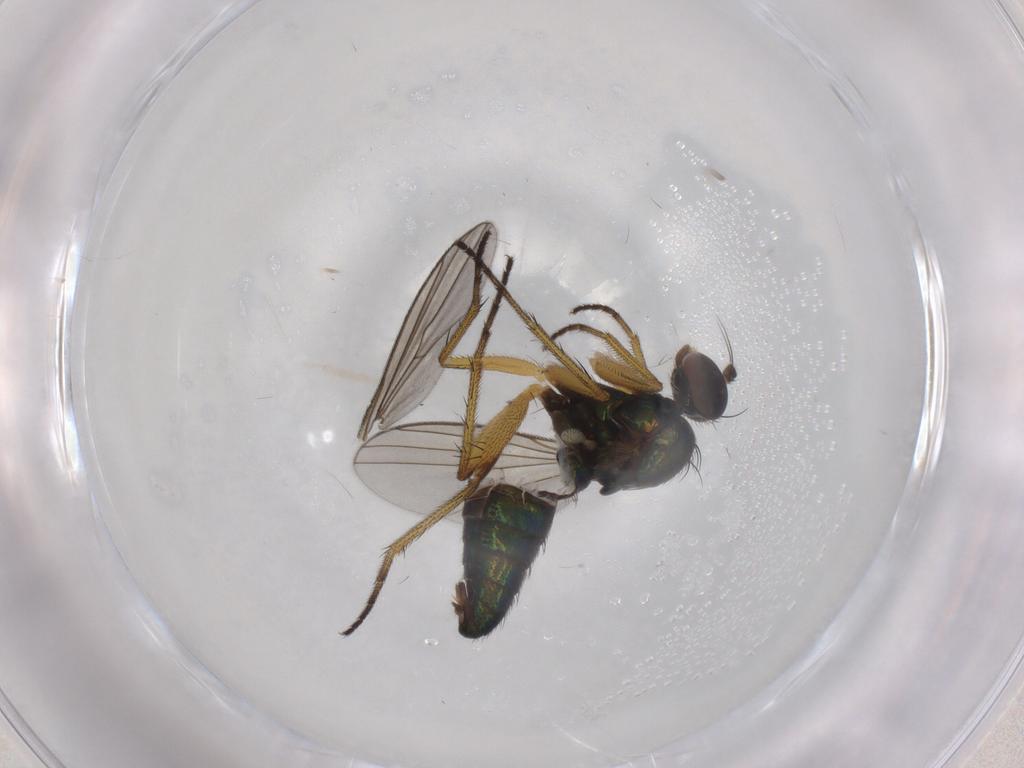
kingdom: Animalia
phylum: Arthropoda
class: Insecta
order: Diptera
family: Dolichopodidae
